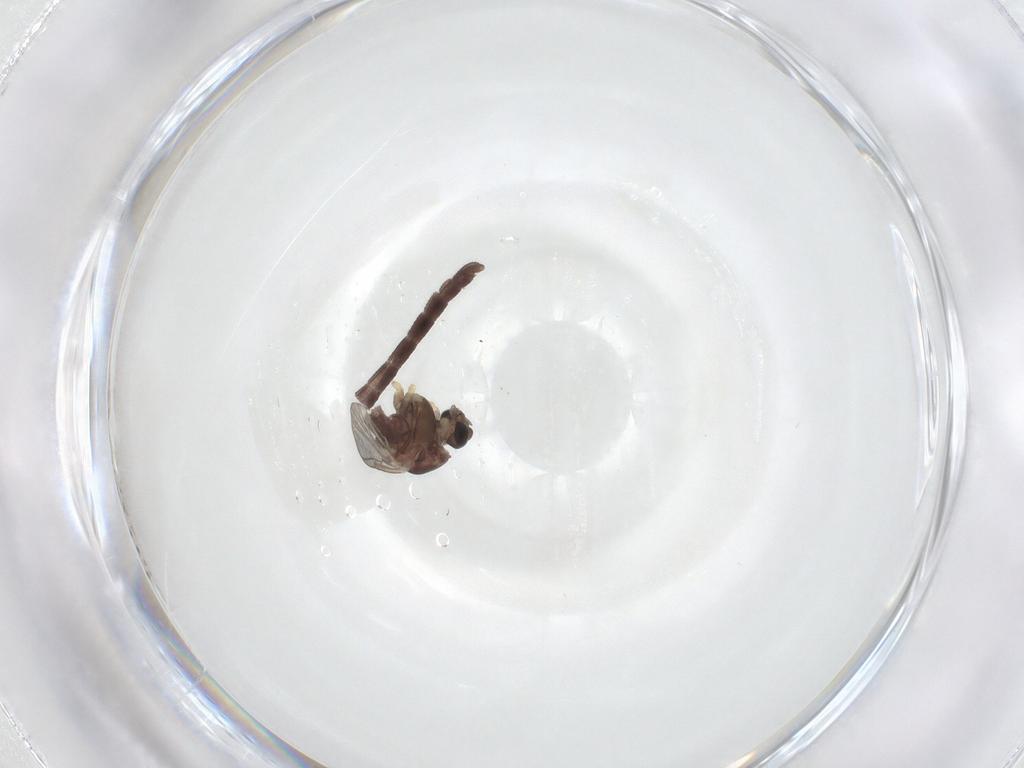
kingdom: Animalia
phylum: Arthropoda
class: Insecta
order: Diptera
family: Chironomidae
